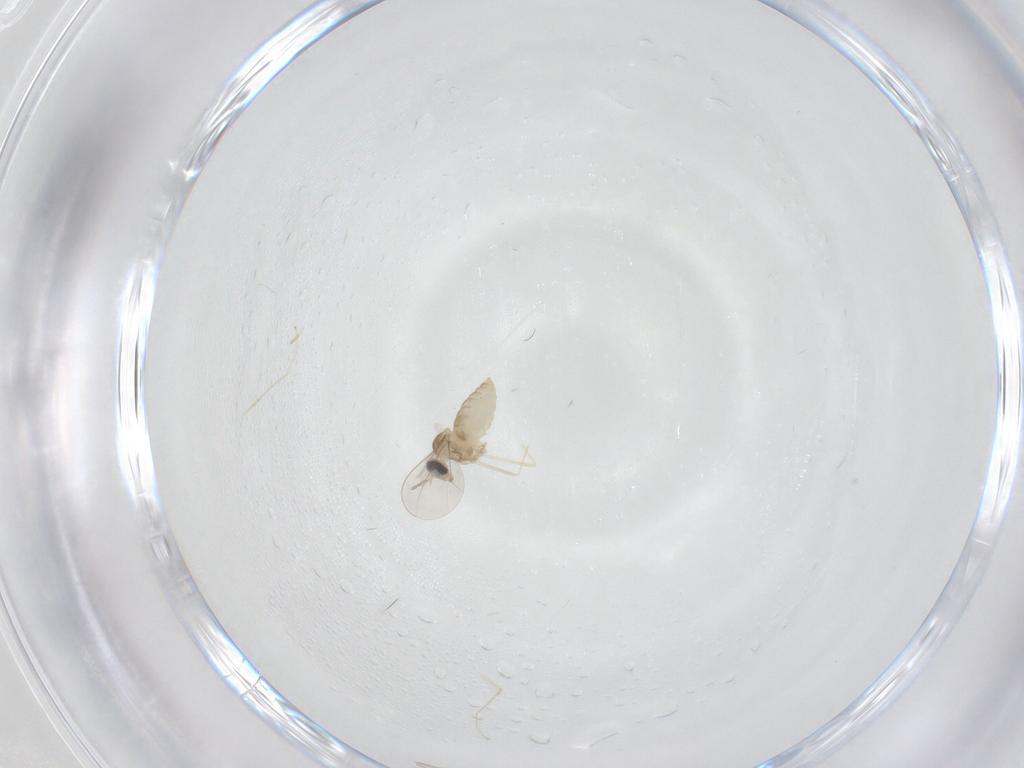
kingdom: Animalia
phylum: Arthropoda
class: Insecta
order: Diptera
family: Cecidomyiidae
